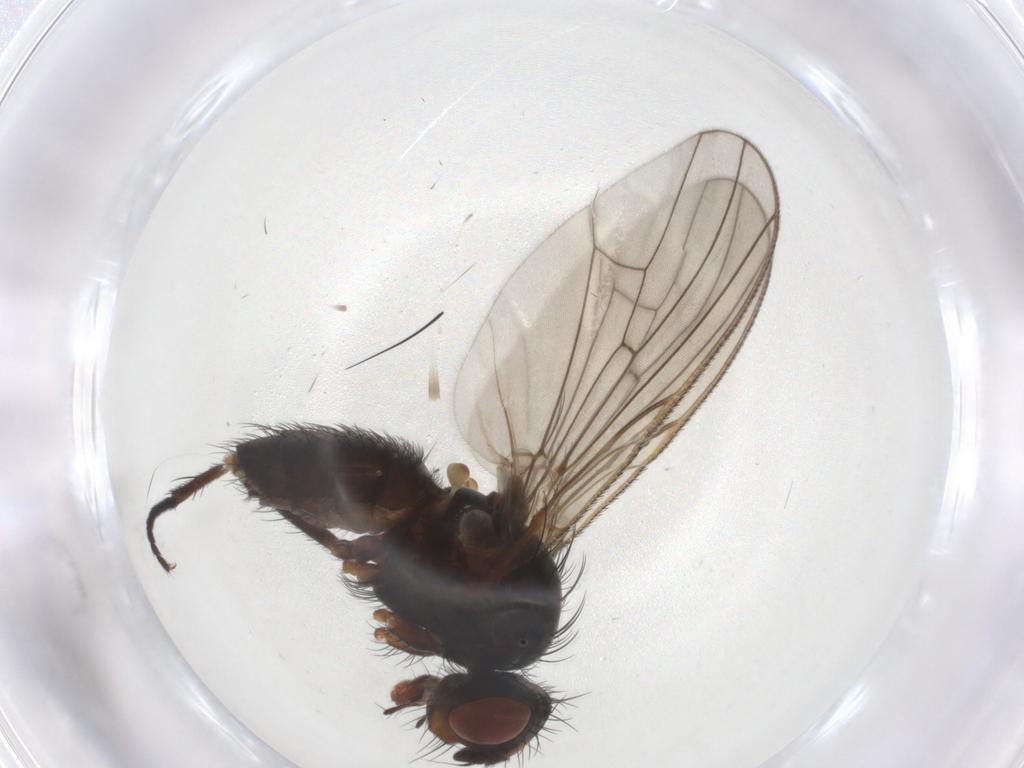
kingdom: Animalia
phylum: Arthropoda
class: Insecta
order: Diptera
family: Anthomyiidae
